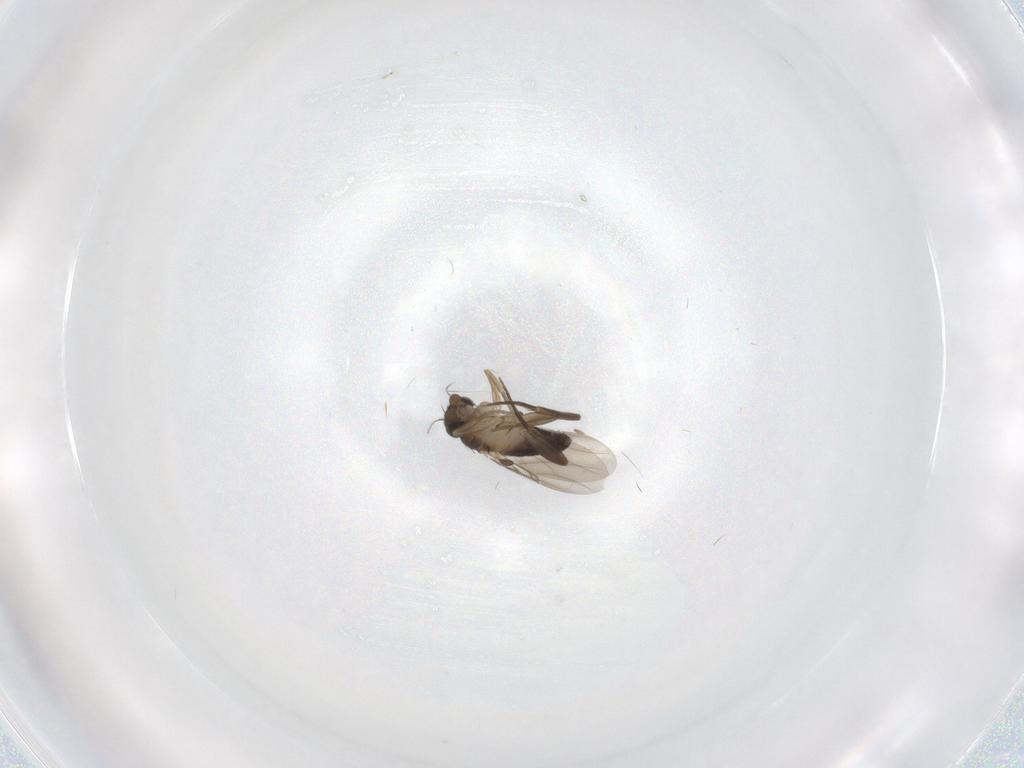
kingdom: Animalia
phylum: Arthropoda
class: Insecta
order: Diptera
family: Phoridae
